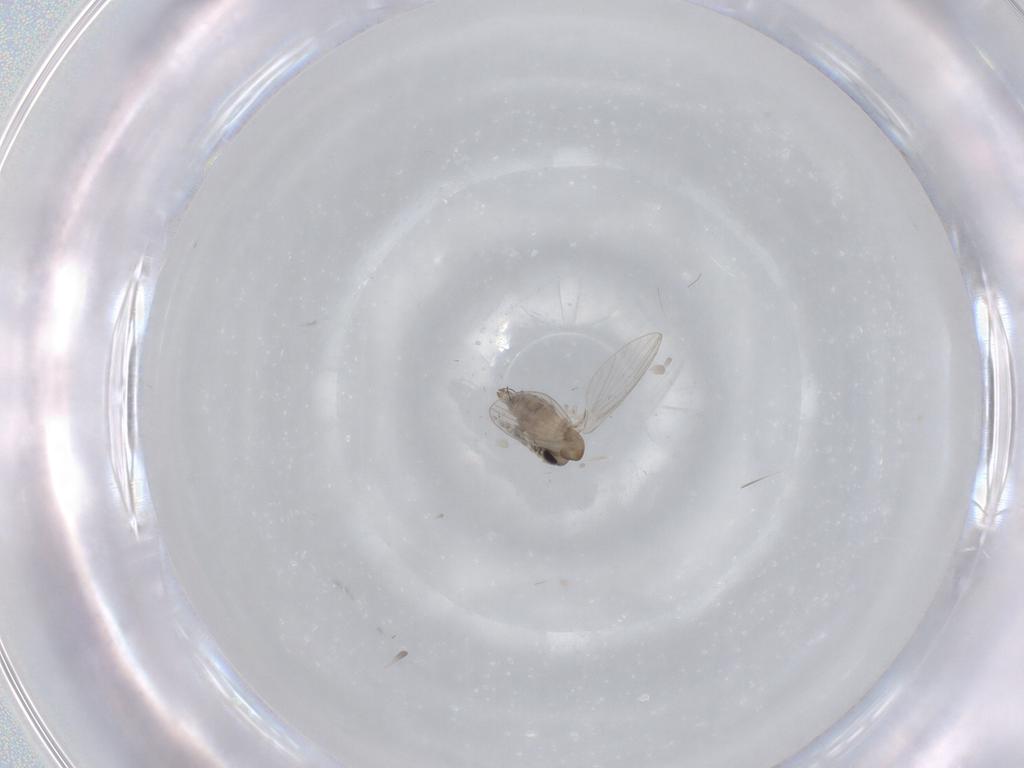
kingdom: Animalia
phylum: Arthropoda
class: Insecta
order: Diptera
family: Psychodidae
